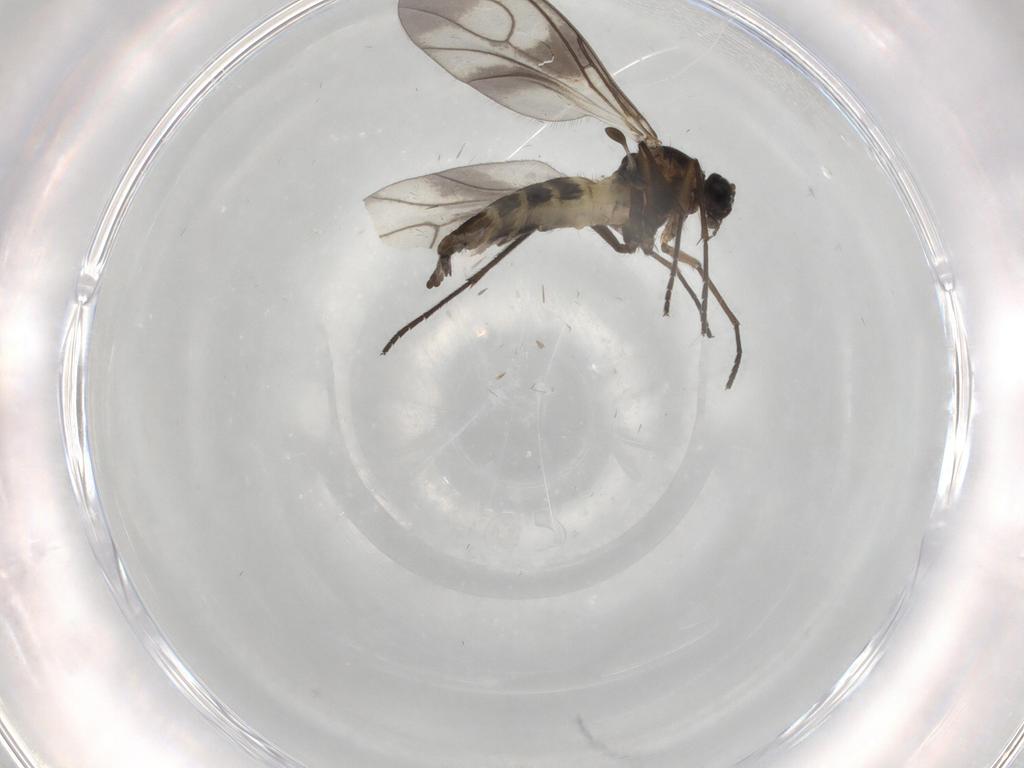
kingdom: Animalia
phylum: Arthropoda
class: Insecta
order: Diptera
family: Sciaridae
